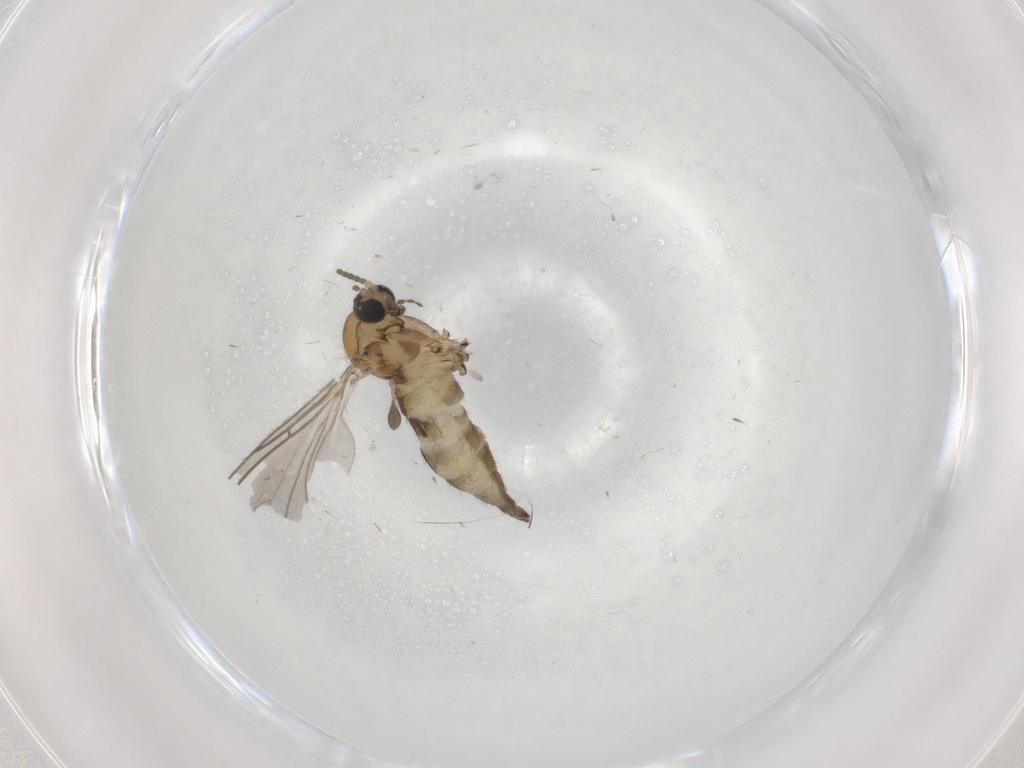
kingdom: Animalia
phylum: Arthropoda
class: Insecta
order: Diptera
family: Sciaridae
